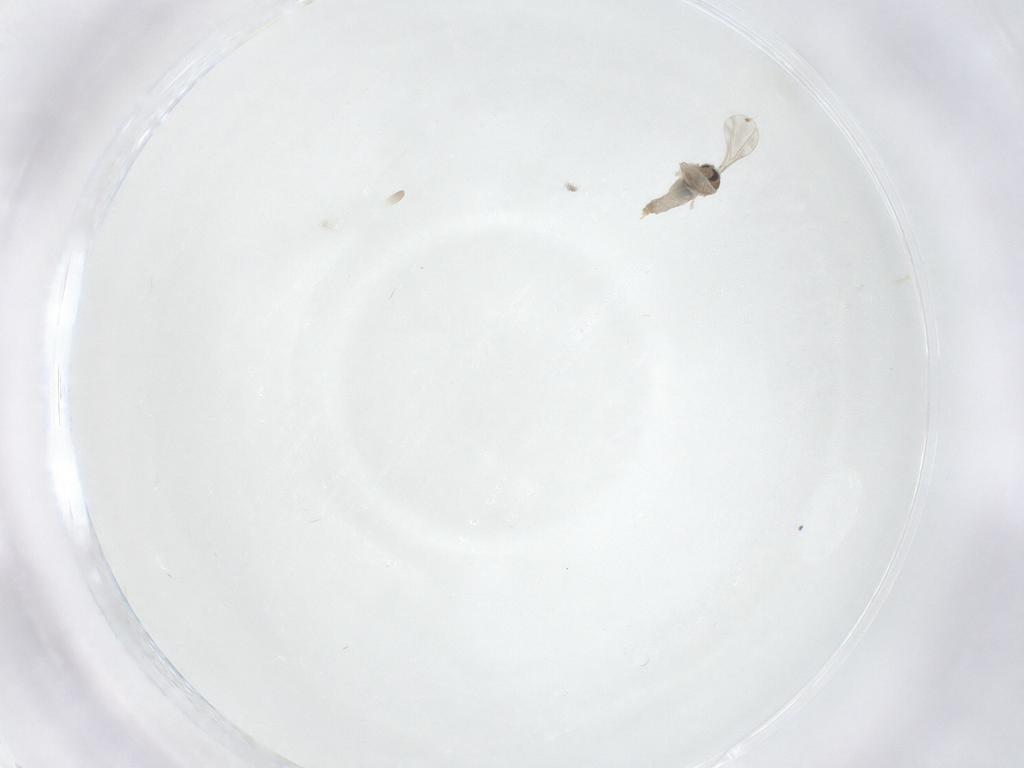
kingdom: Animalia
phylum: Arthropoda
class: Insecta
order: Diptera
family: Cecidomyiidae
